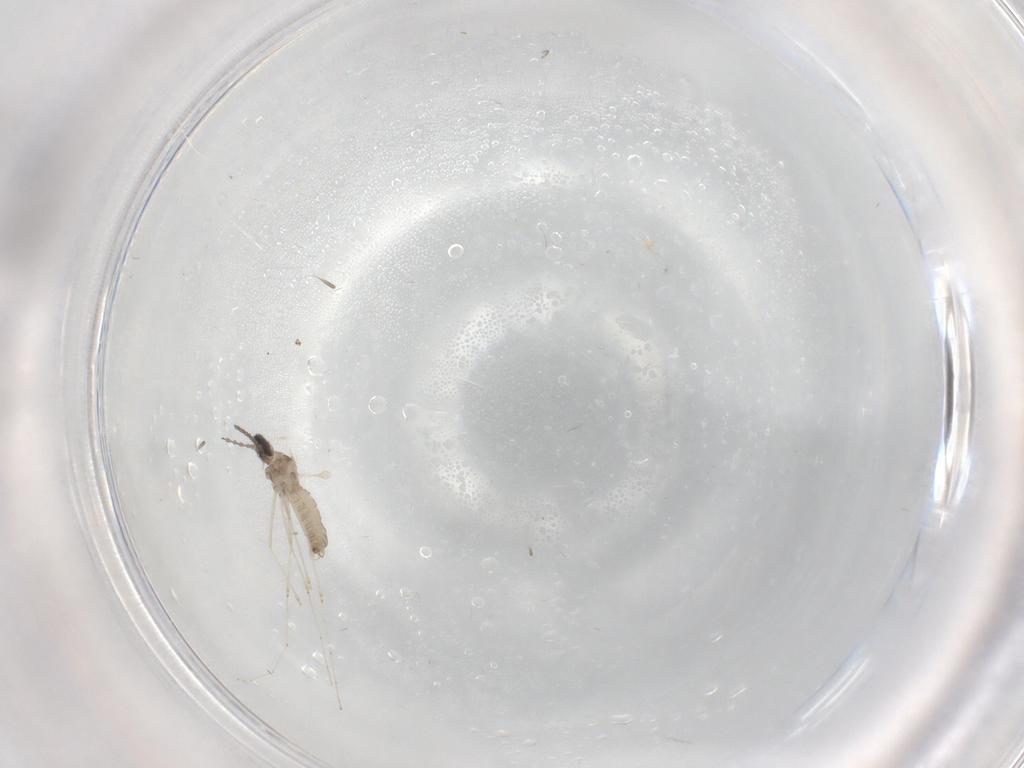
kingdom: Animalia
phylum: Arthropoda
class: Insecta
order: Diptera
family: Cecidomyiidae
